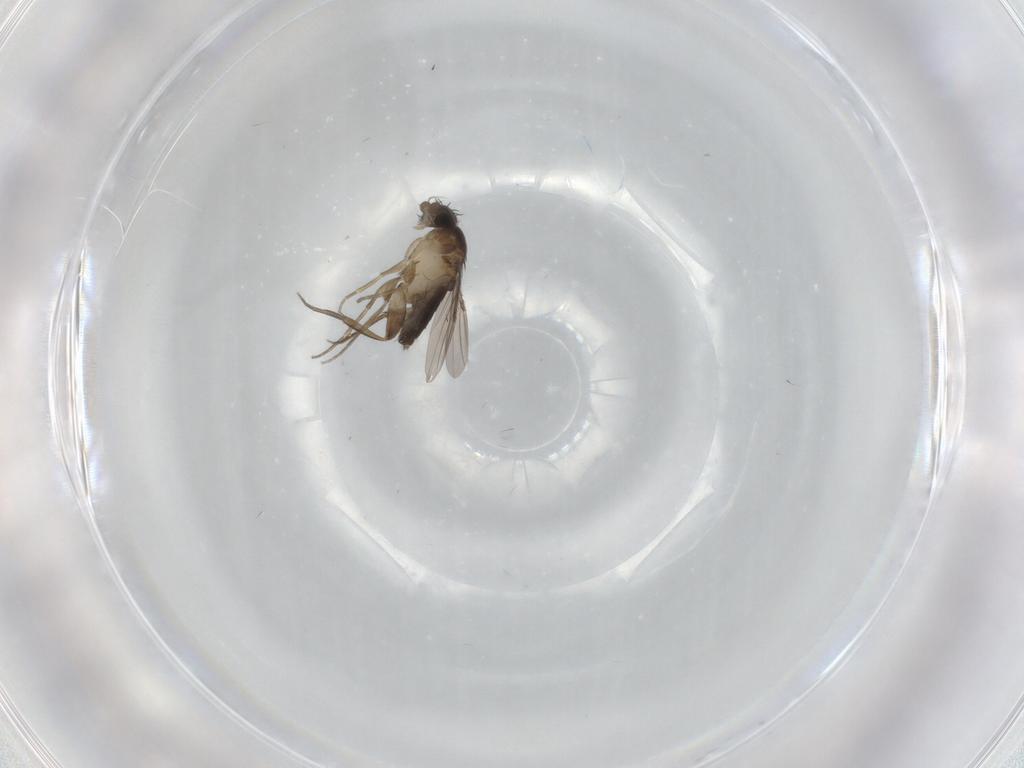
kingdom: Animalia
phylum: Arthropoda
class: Insecta
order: Diptera
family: Phoridae
